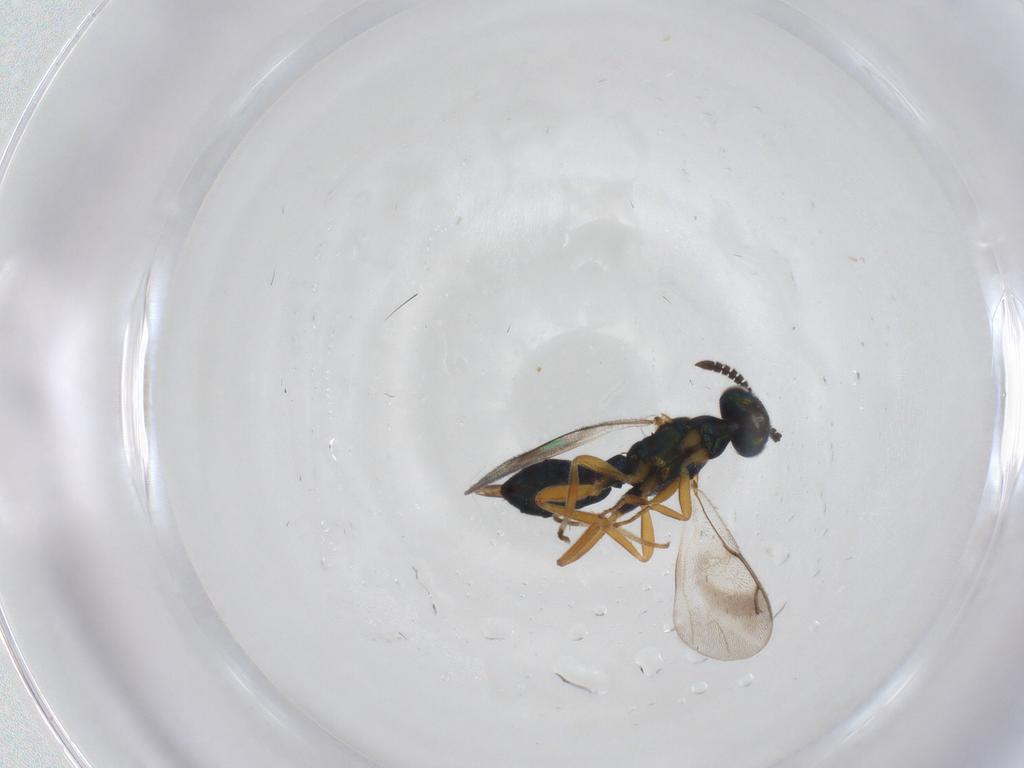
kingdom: Animalia
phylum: Arthropoda
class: Insecta
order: Hymenoptera
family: Cleonyminae
